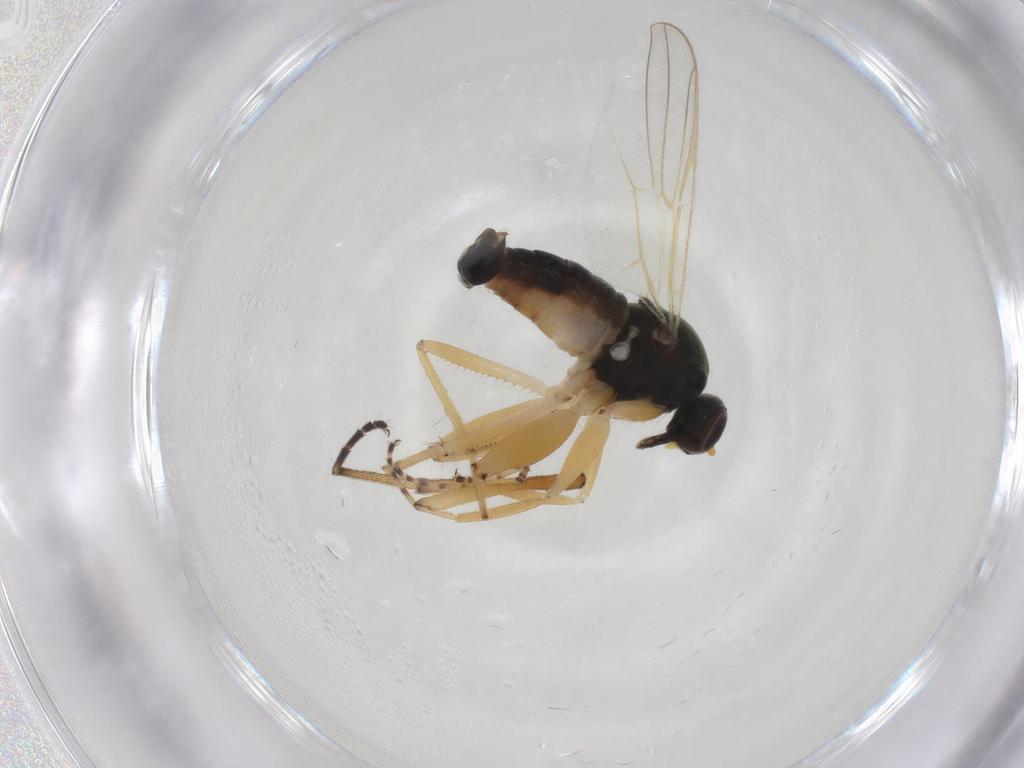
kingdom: Animalia
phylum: Arthropoda
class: Insecta
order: Diptera
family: Hybotidae
